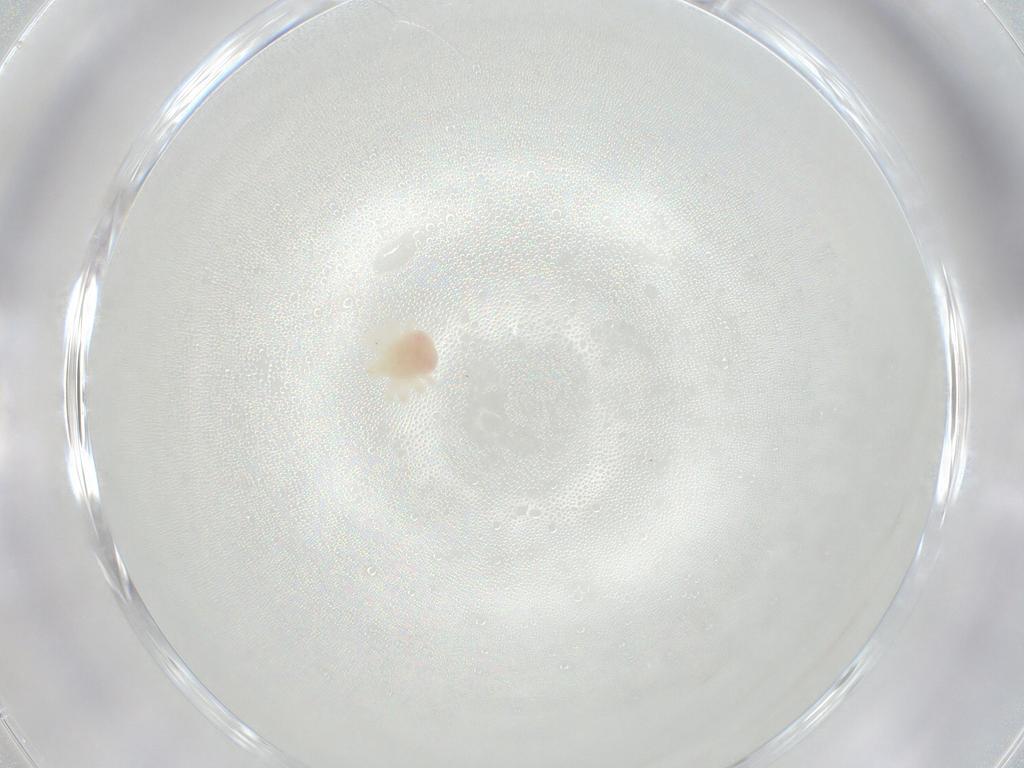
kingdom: Animalia
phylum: Arthropoda
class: Arachnida
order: Trombidiformes
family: Anystidae
